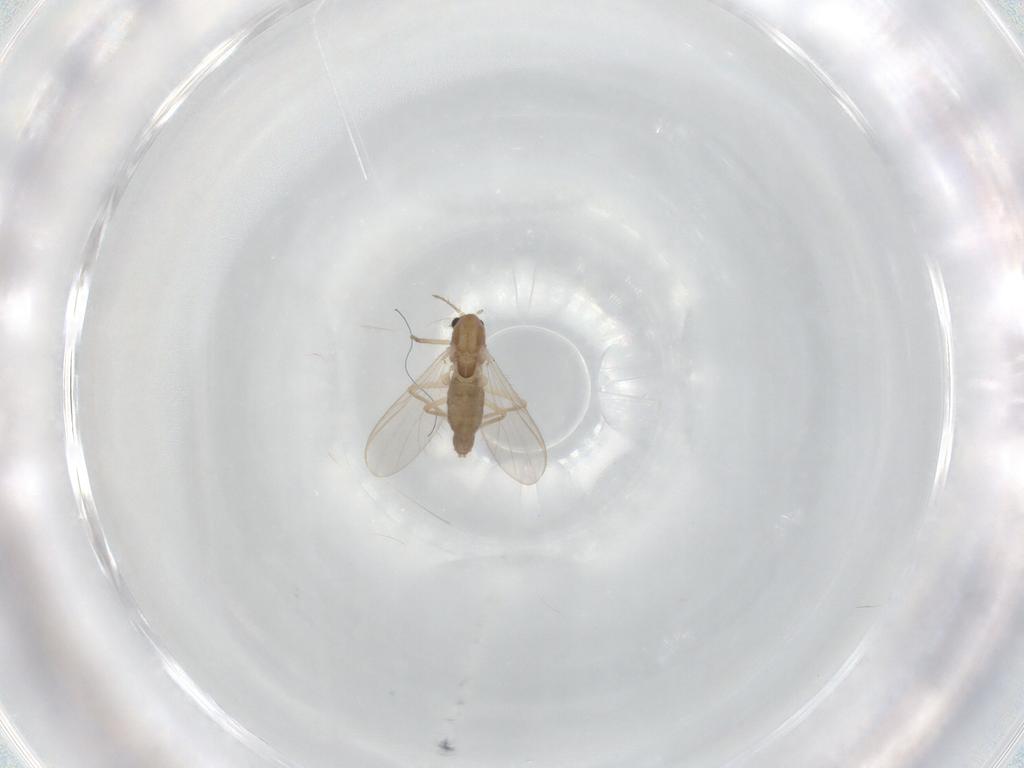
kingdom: Animalia
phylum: Arthropoda
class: Insecta
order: Diptera
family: Chironomidae
